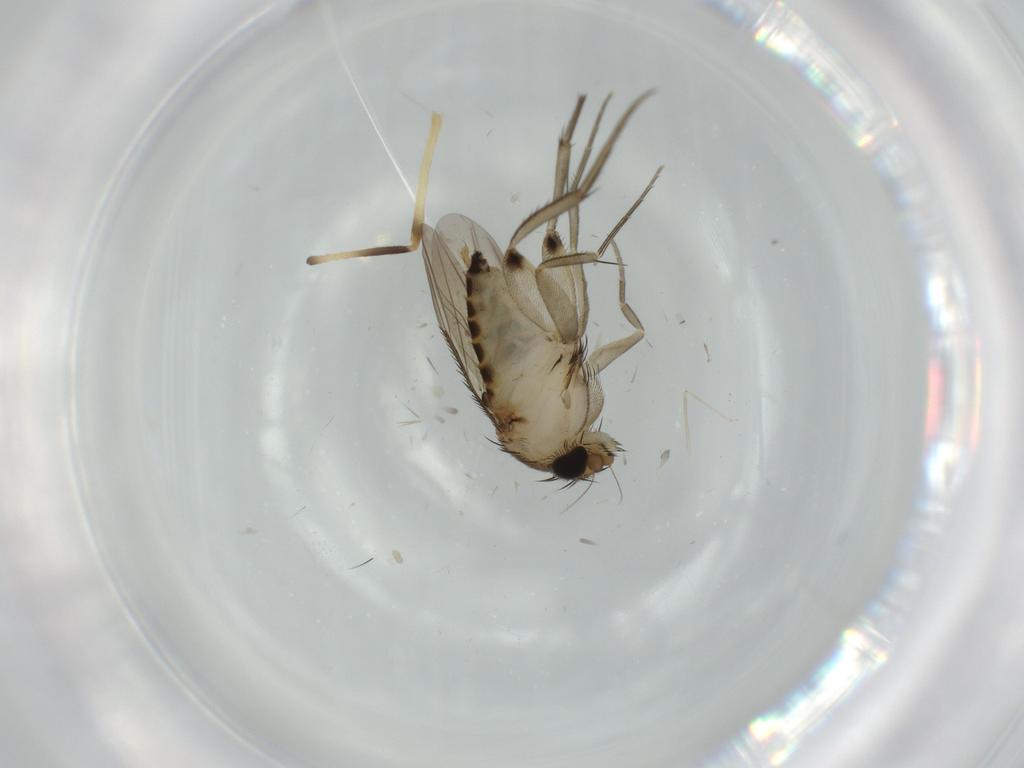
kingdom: Animalia
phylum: Arthropoda
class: Insecta
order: Diptera
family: Phoridae
